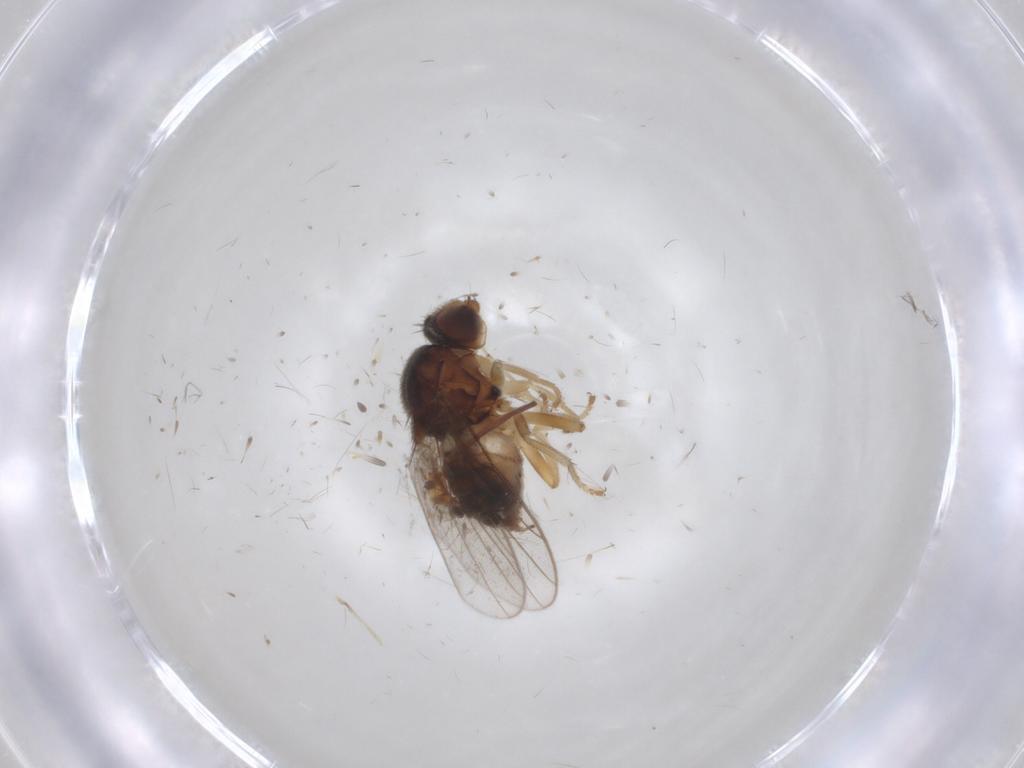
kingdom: Animalia
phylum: Arthropoda
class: Insecta
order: Diptera
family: Chloropidae
